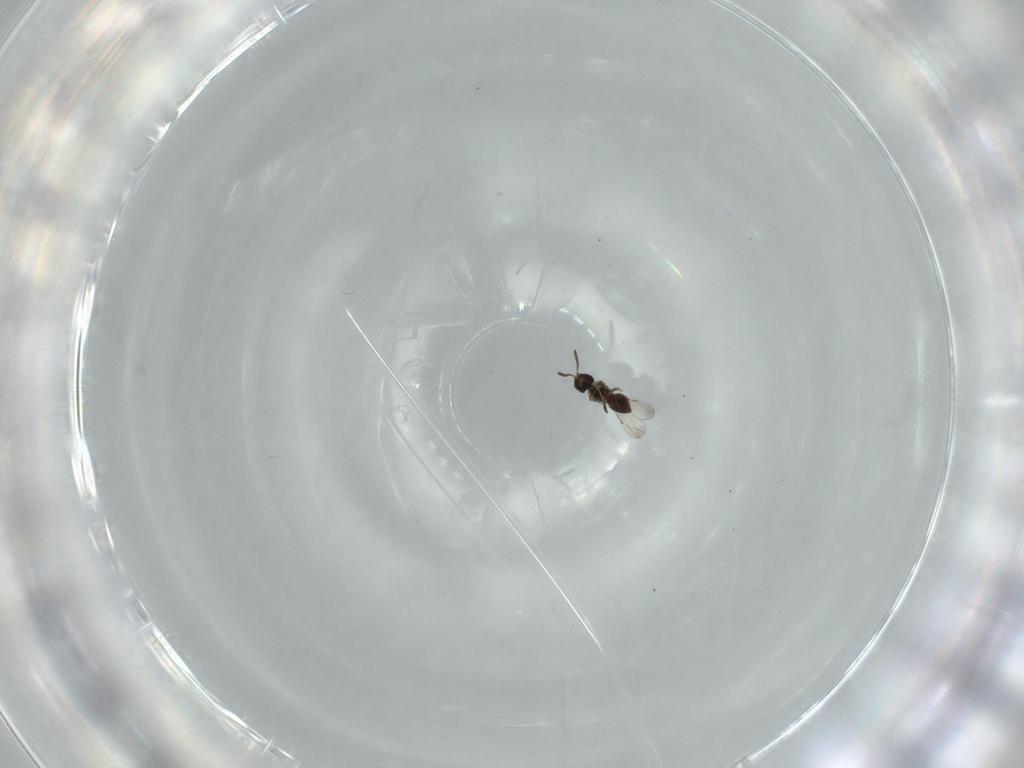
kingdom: Animalia
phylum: Arthropoda
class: Insecta
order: Hymenoptera
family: Ceraphronidae
